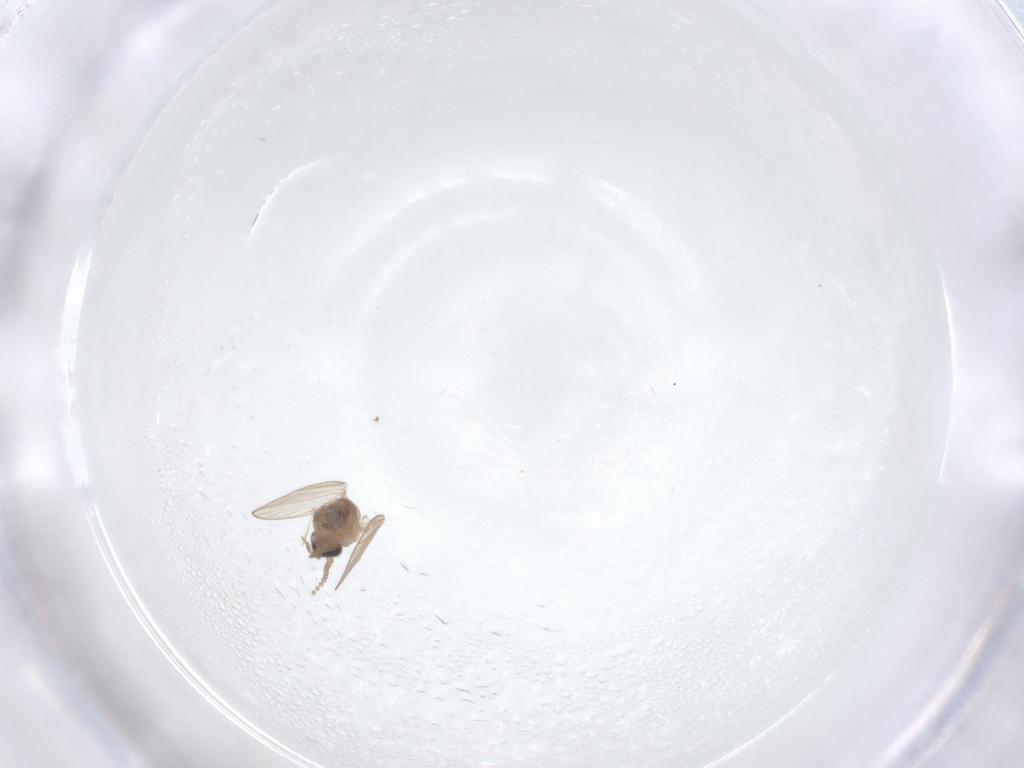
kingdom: Animalia
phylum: Arthropoda
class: Insecta
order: Diptera
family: Psychodidae
